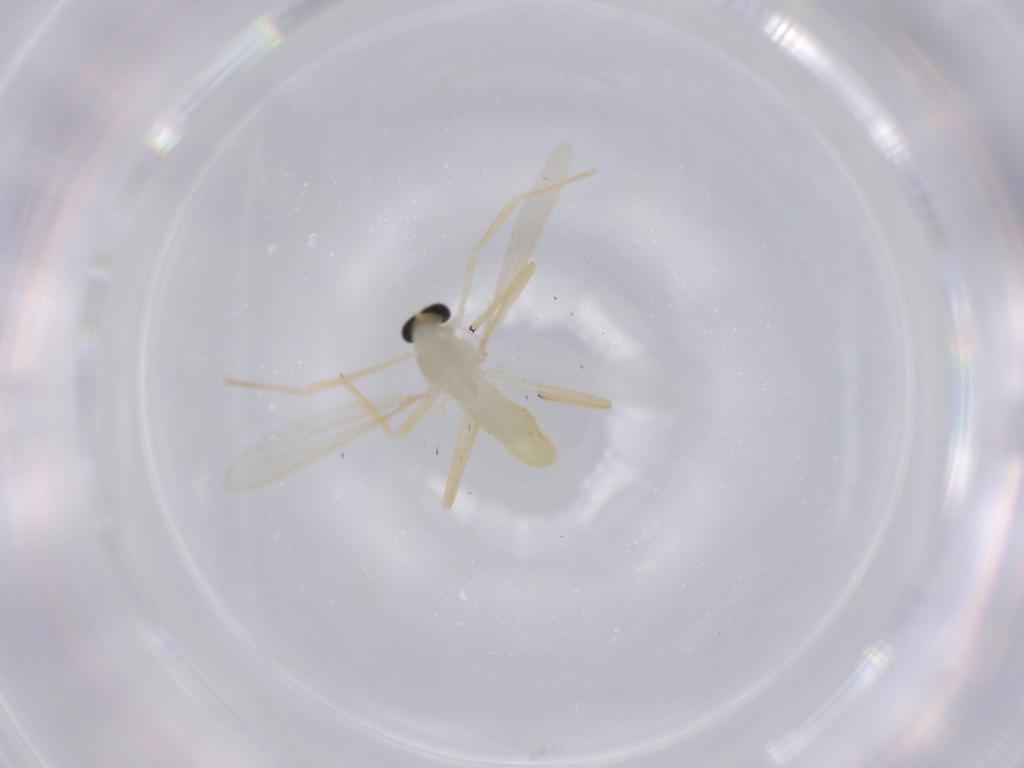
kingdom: Animalia
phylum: Arthropoda
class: Insecta
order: Diptera
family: Chironomidae
